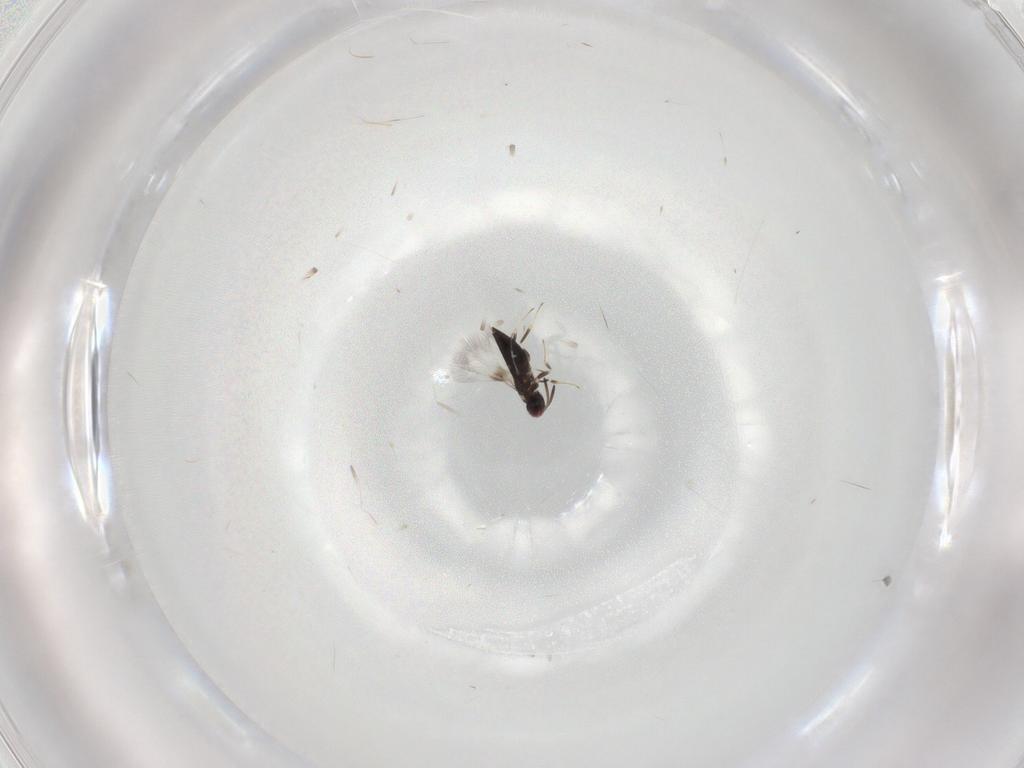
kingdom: Animalia
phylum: Arthropoda
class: Insecta
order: Hymenoptera
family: Signiphoridae
